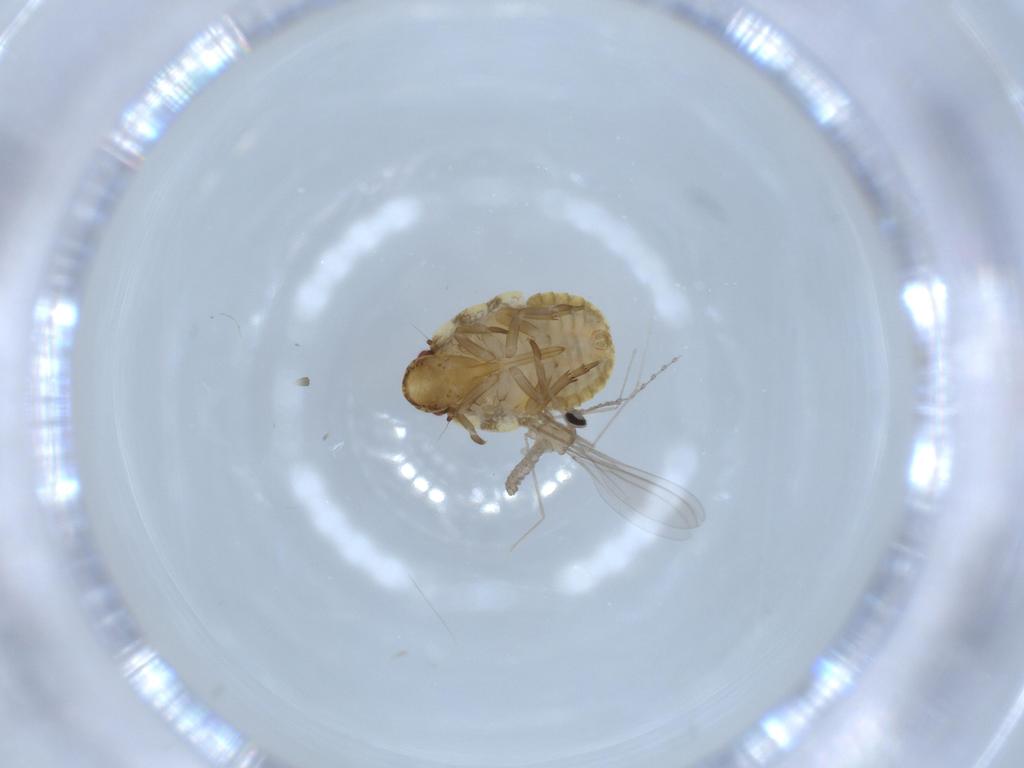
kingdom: Animalia
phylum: Arthropoda
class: Insecta
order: Hemiptera
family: Flatidae
